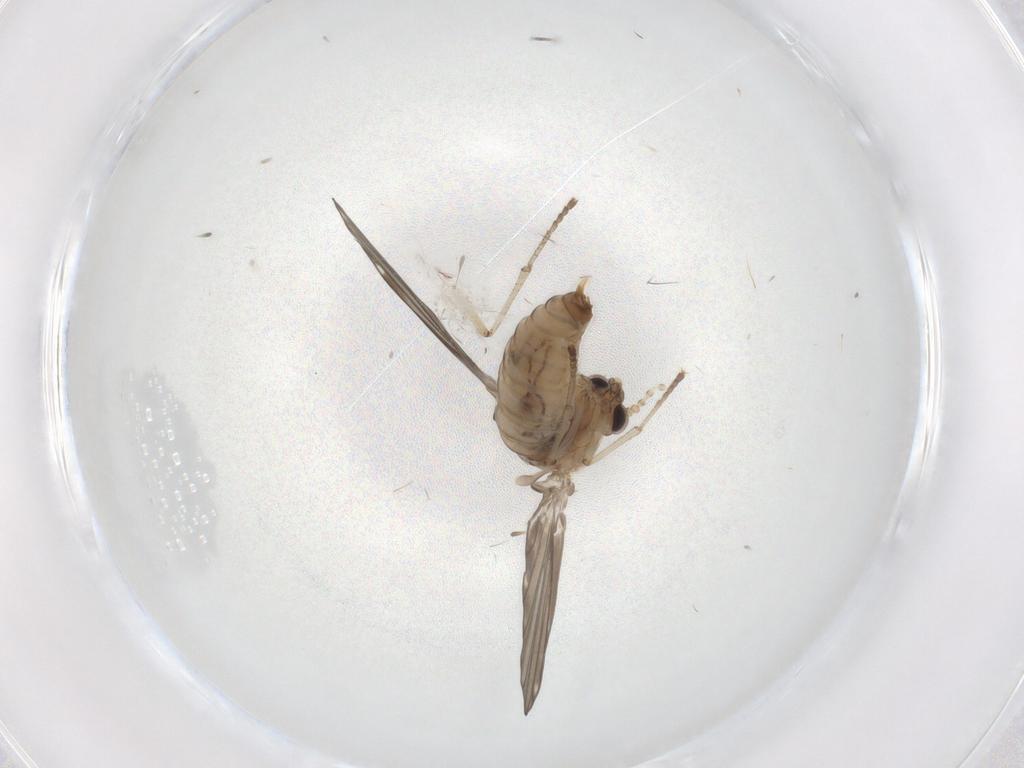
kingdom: Animalia
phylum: Arthropoda
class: Insecta
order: Diptera
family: Psychodidae
